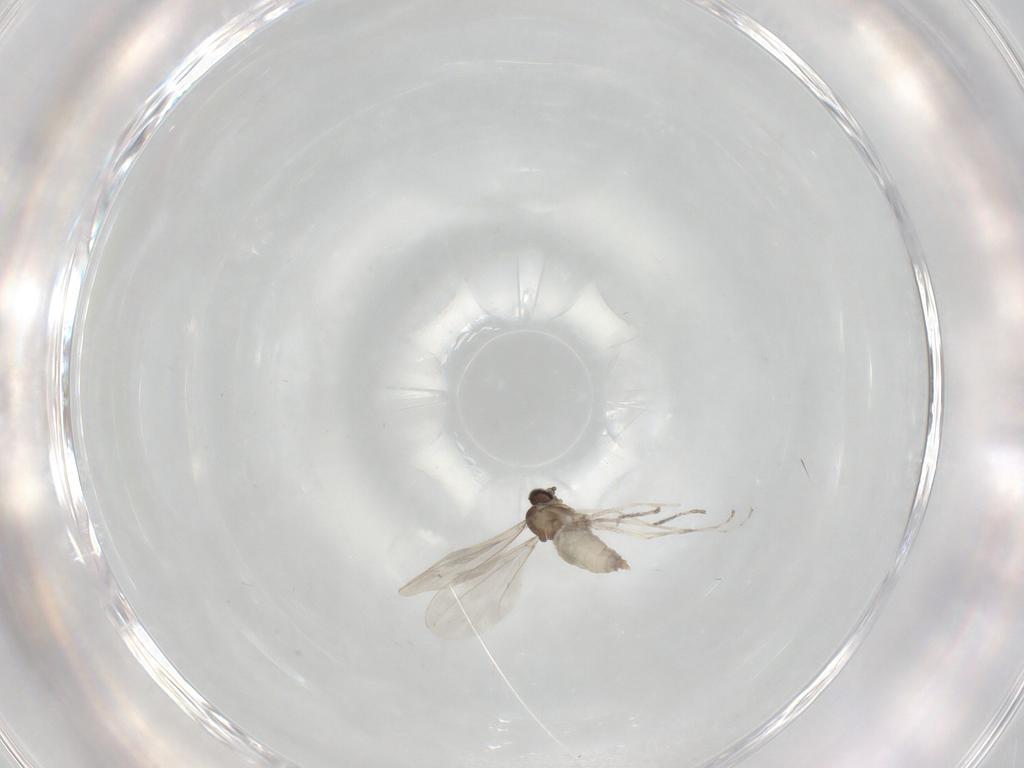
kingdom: Animalia
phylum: Arthropoda
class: Insecta
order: Diptera
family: Cecidomyiidae
